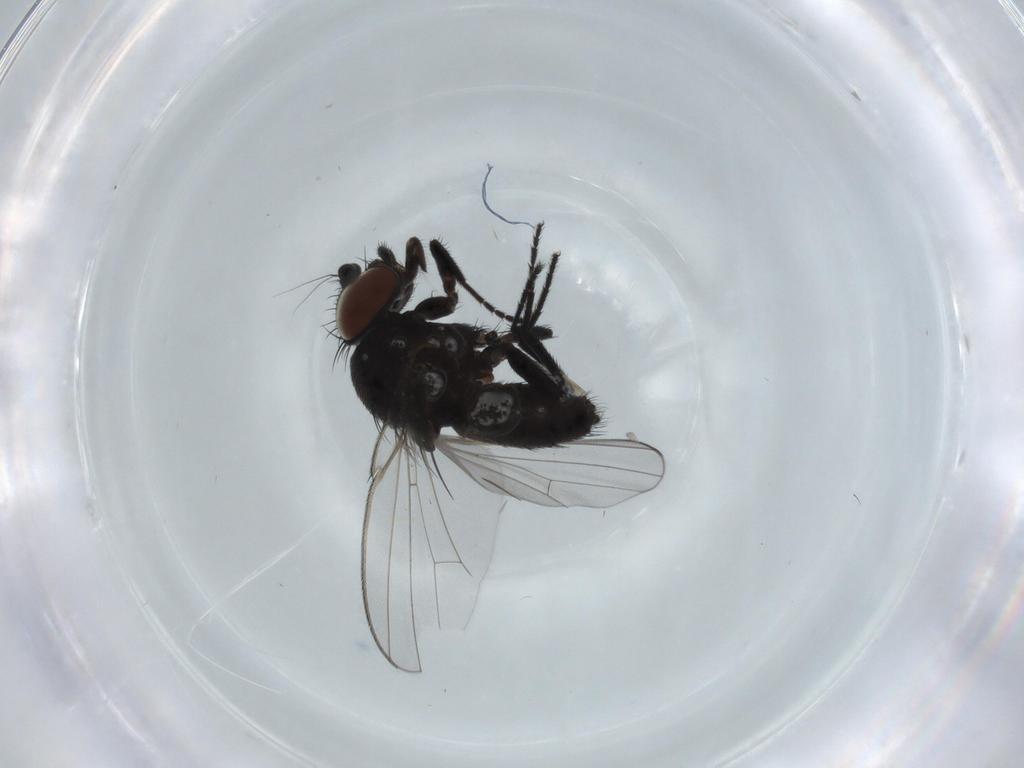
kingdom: Animalia
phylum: Arthropoda
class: Insecta
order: Diptera
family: Milichiidae
